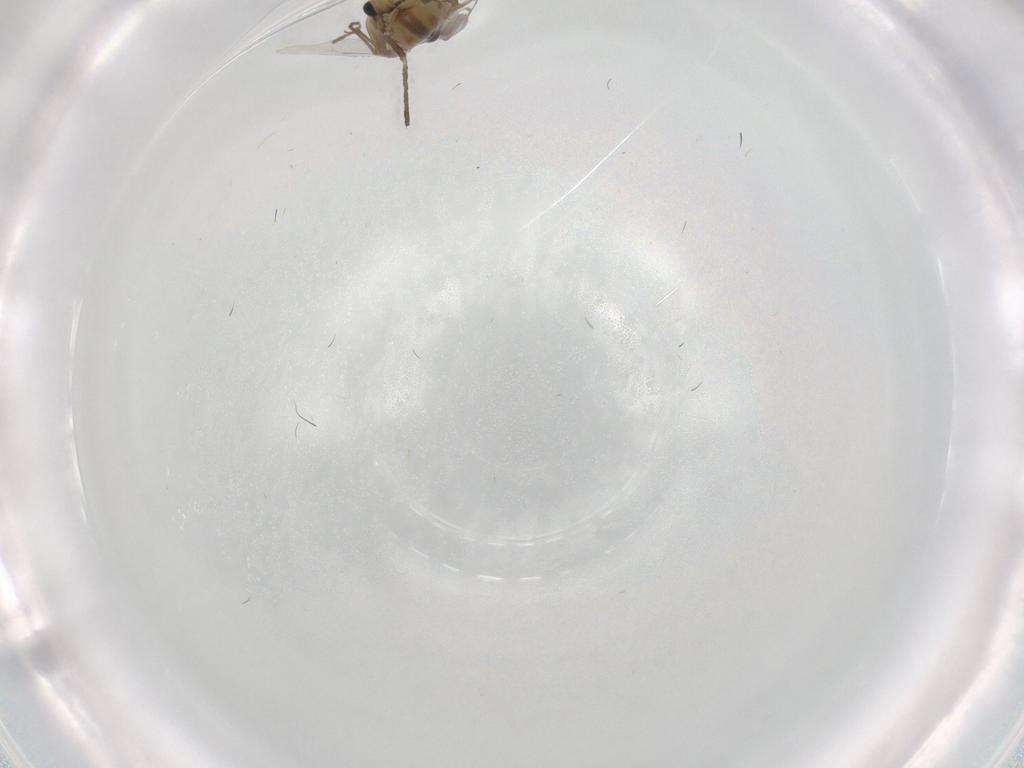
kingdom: Animalia
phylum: Arthropoda
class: Insecta
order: Diptera
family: Chironomidae
